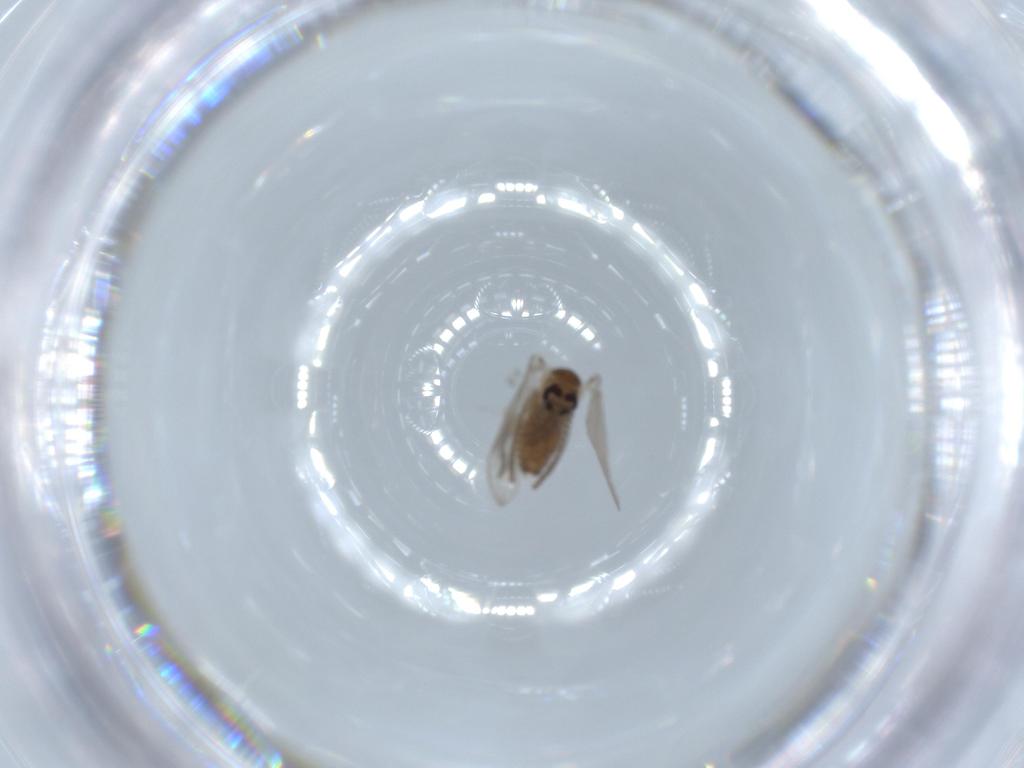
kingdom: Animalia
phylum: Arthropoda
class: Insecta
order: Diptera
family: Psychodidae
